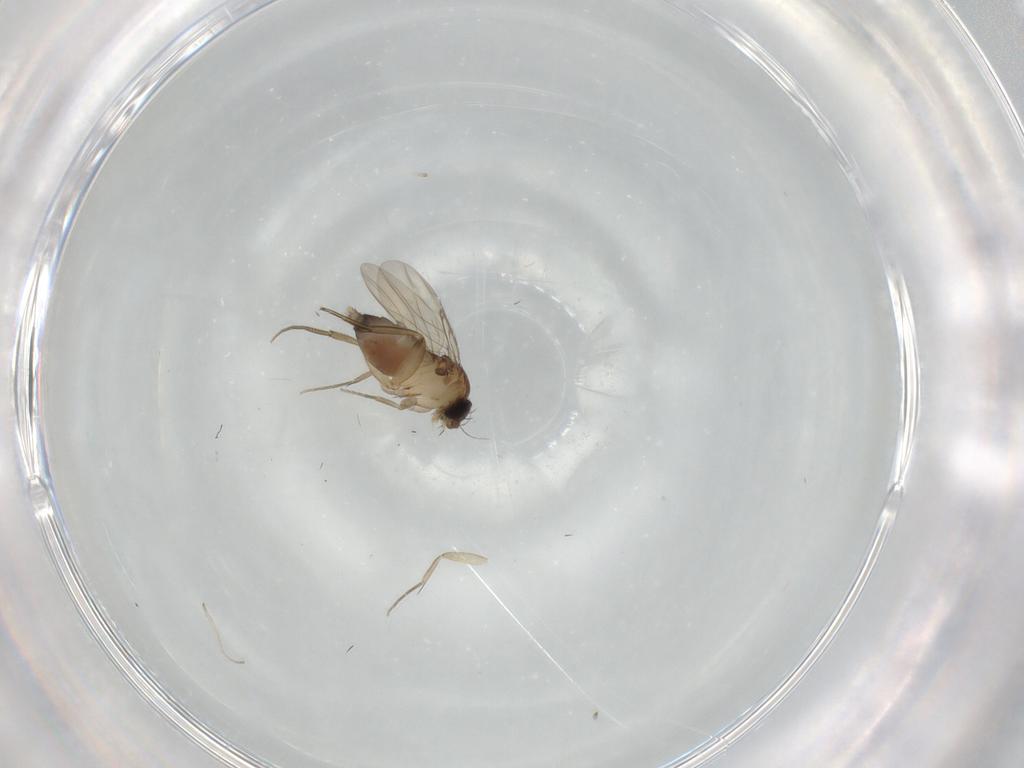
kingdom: Animalia
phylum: Arthropoda
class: Insecta
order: Diptera
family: Phoridae
